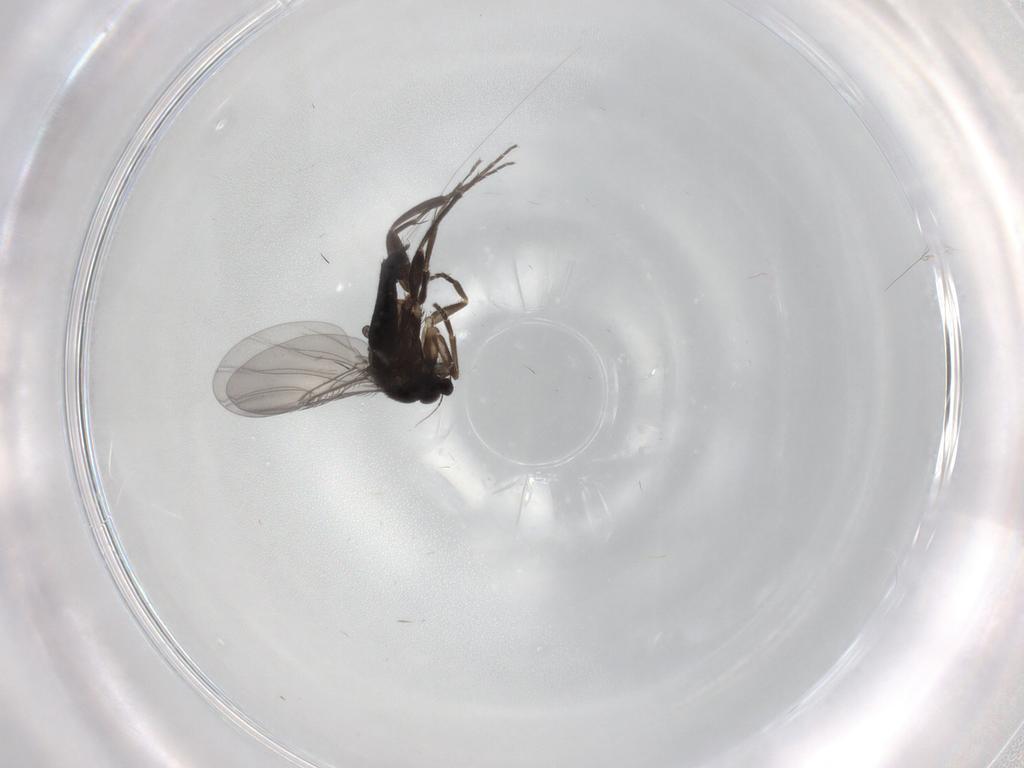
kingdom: Animalia
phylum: Arthropoda
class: Insecta
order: Diptera
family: Phoridae
